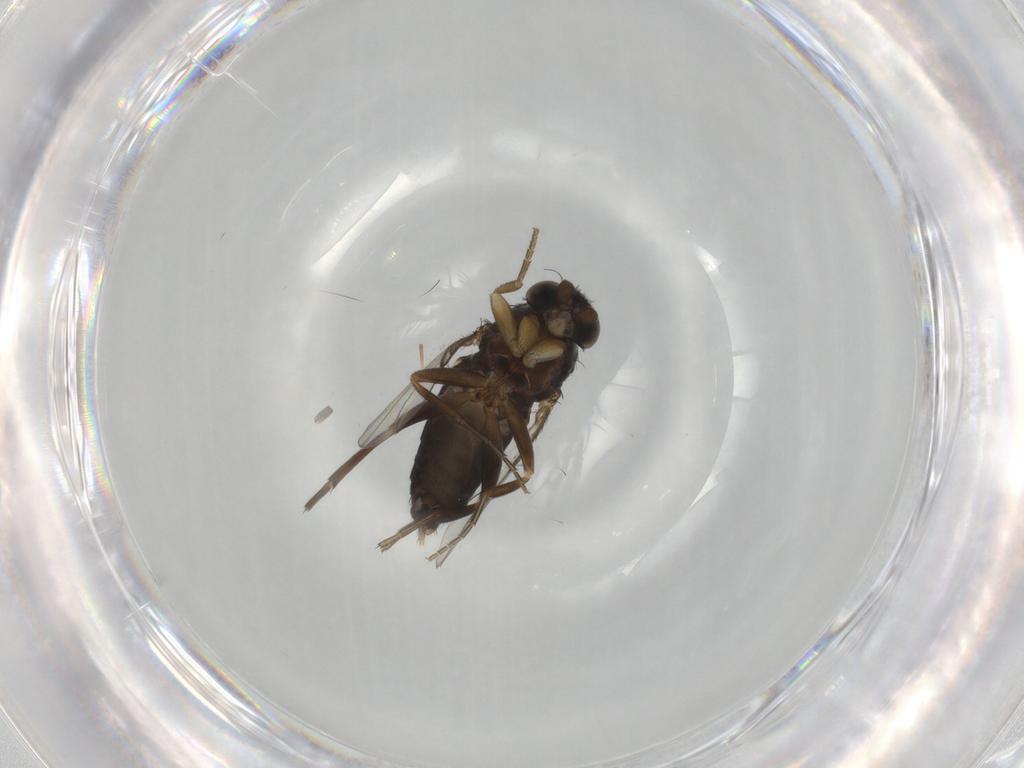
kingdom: Animalia
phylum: Arthropoda
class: Insecta
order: Diptera
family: Phoridae
